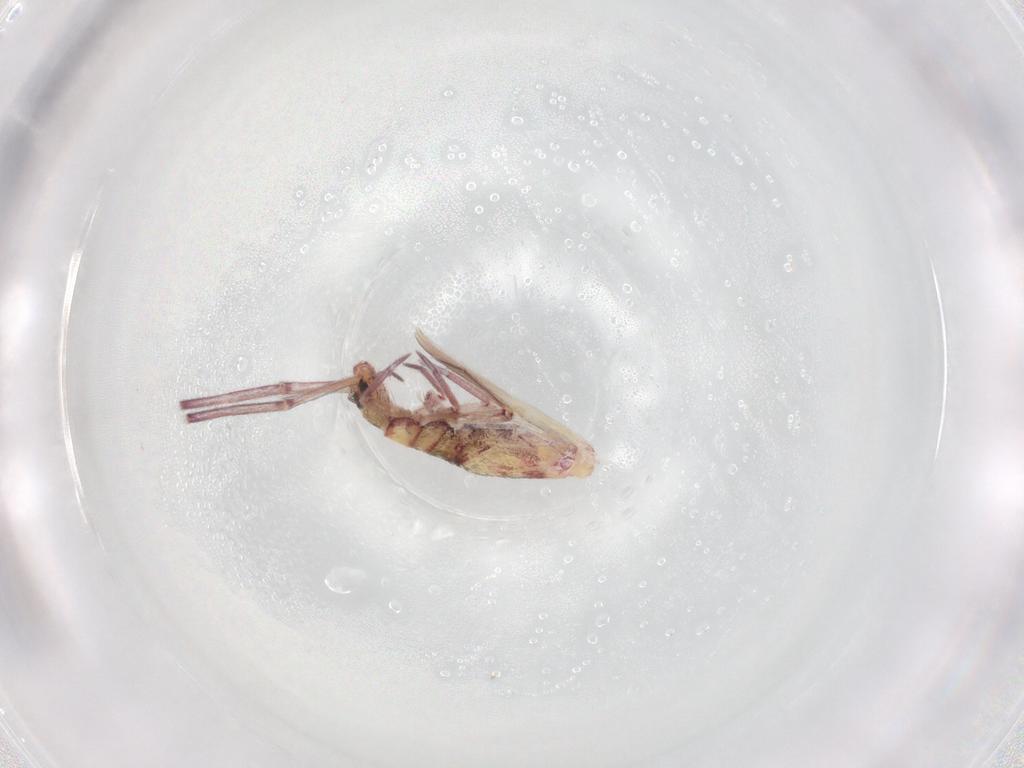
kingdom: Animalia
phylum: Arthropoda
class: Collembola
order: Entomobryomorpha
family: Entomobryidae
